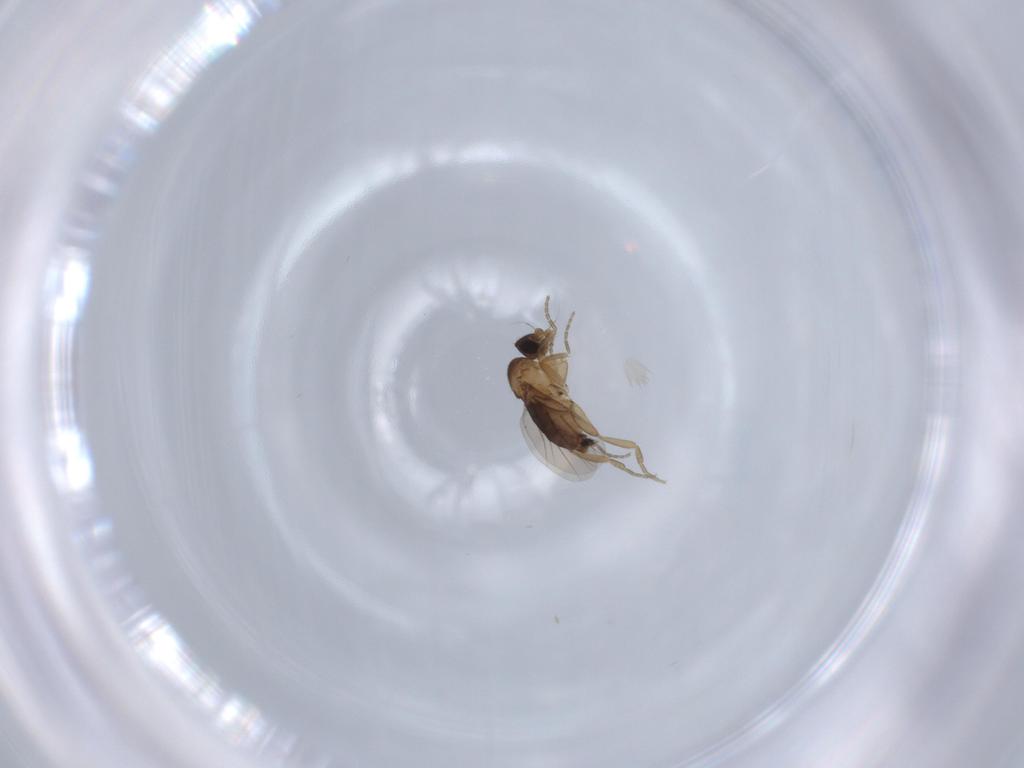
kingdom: Animalia
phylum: Arthropoda
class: Insecta
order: Diptera
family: Phoridae
